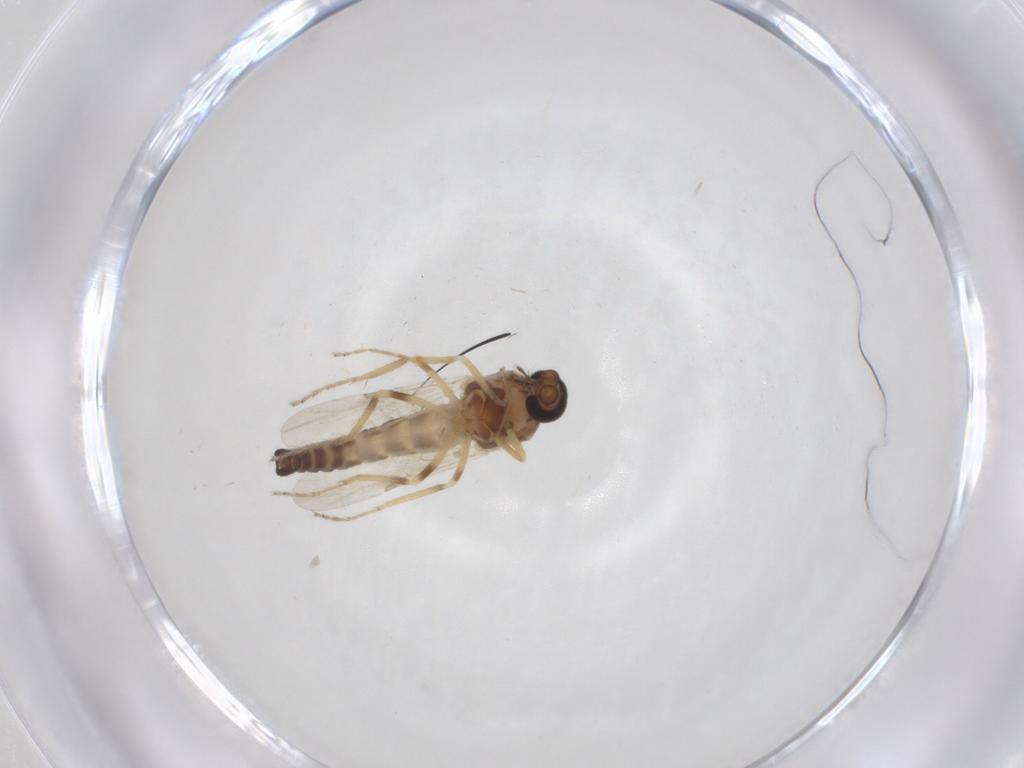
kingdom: Animalia
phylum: Arthropoda
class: Insecta
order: Diptera
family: Ceratopogonidae
